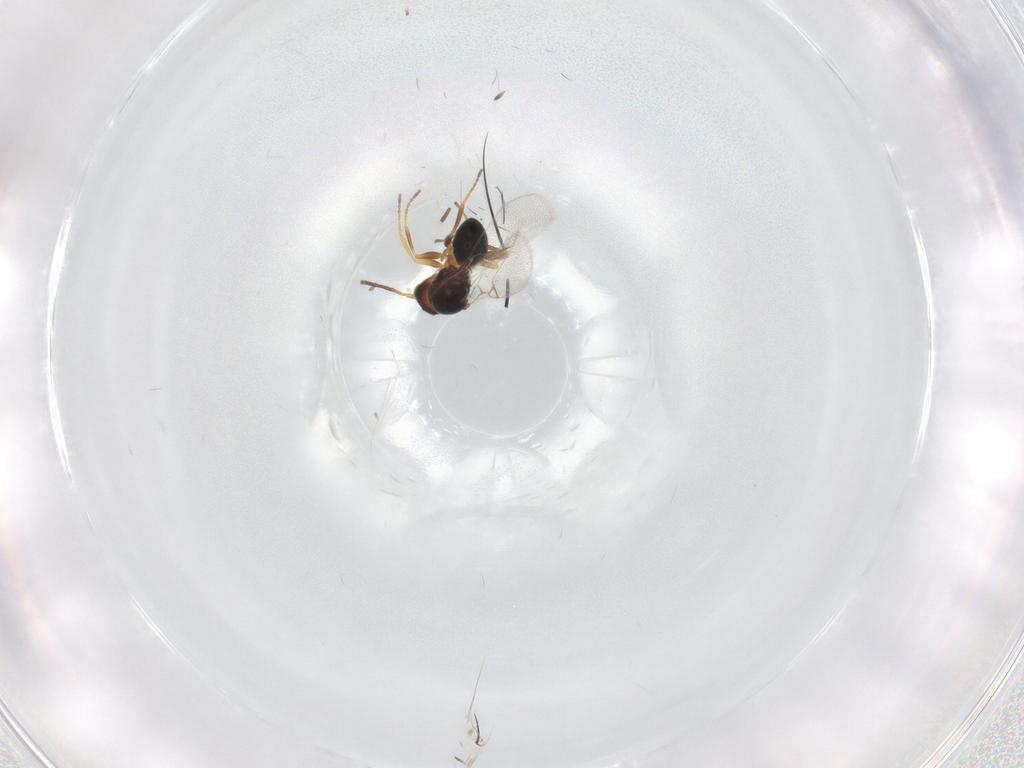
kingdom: Animalia
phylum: Arthropoda
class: Insecta
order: Hymenoptera
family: Figitidae
